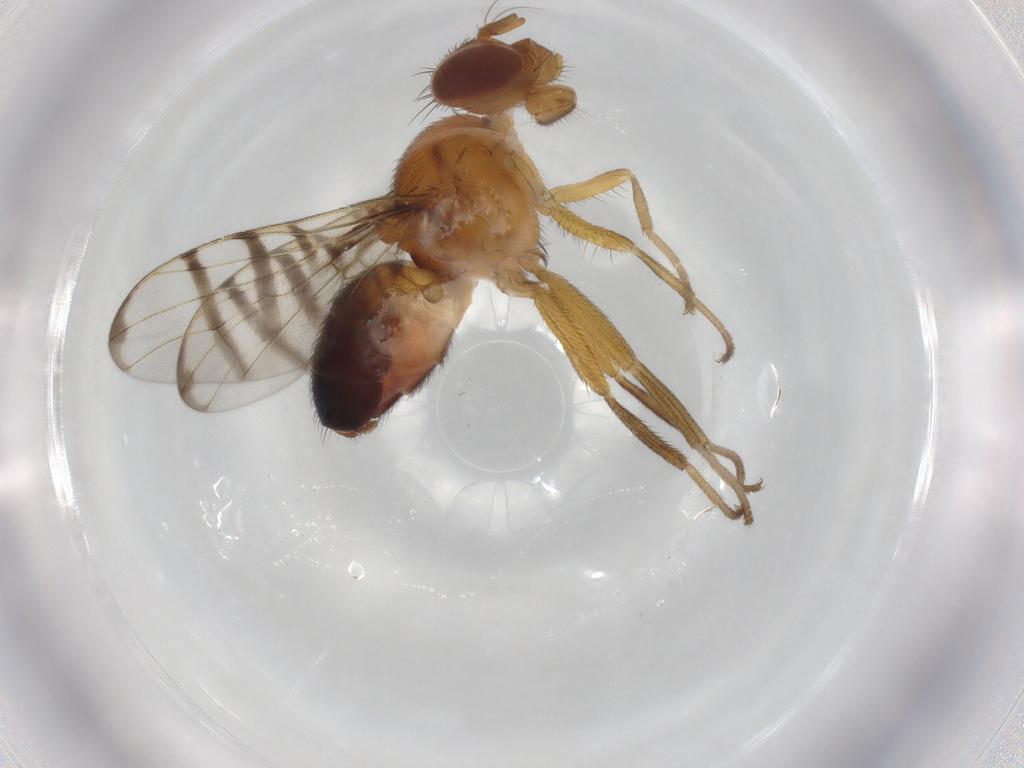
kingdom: Animalia
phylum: Arthropoda
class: Insecta
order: Diptera
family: Platystomatidae
